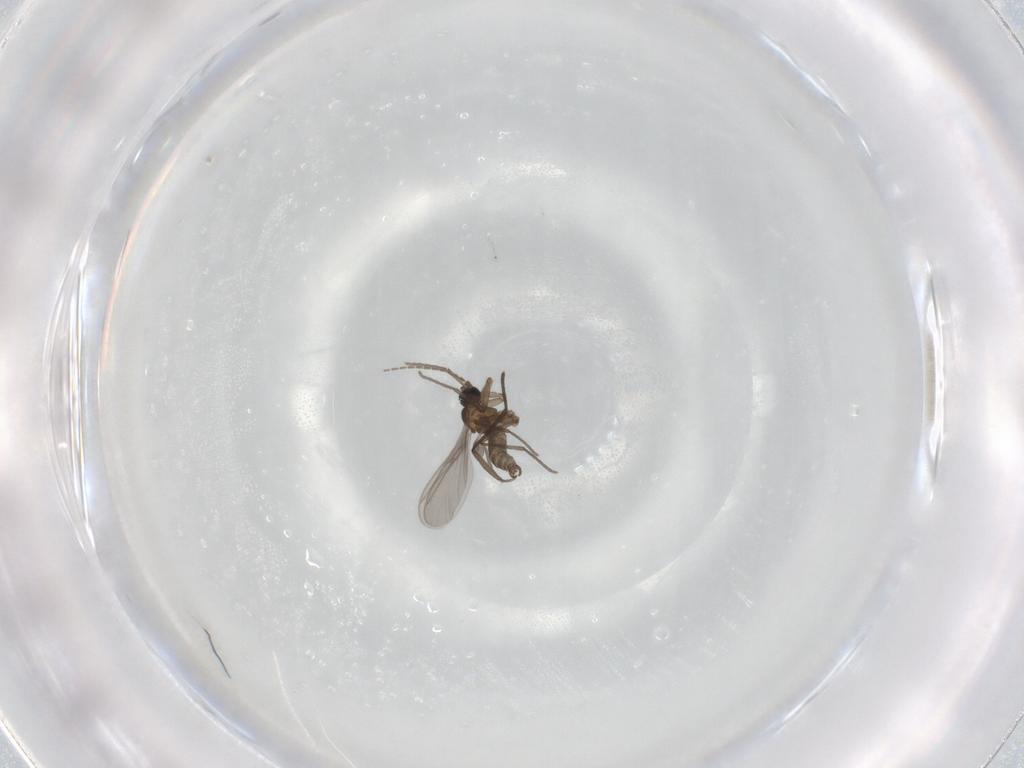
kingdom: Animalia
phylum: Arthropoda
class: Insecta
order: Diptera
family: Sciaridae
